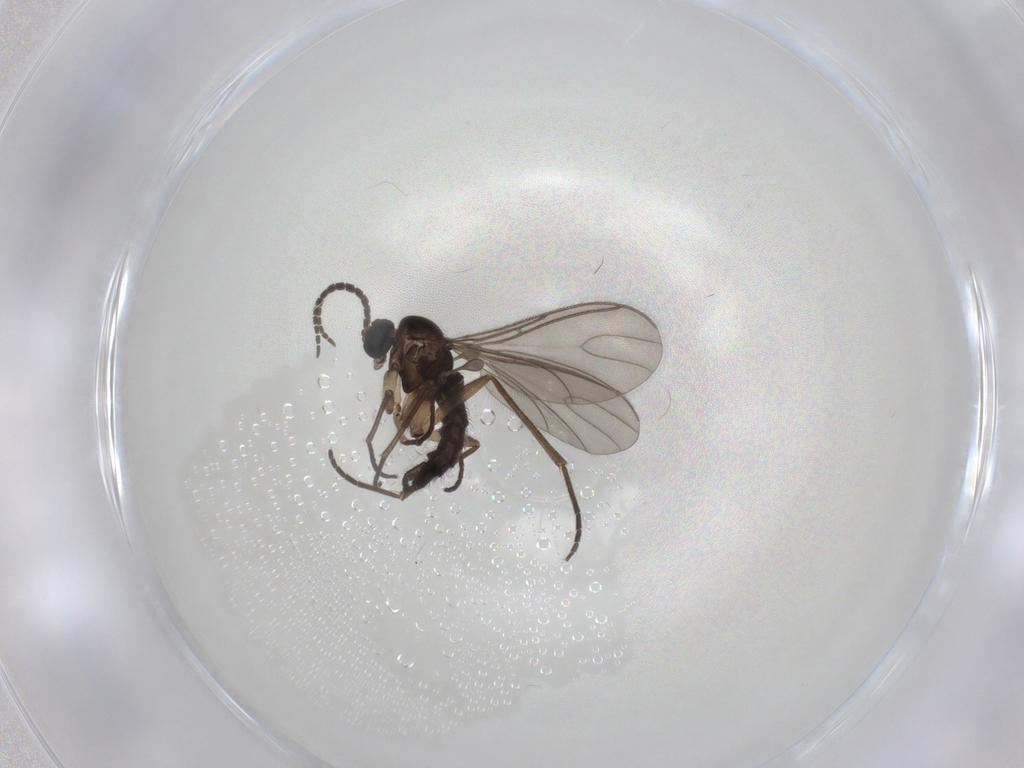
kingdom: Animalia
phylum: Arthropoda
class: Insecta
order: Diptera
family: Sciaridae
